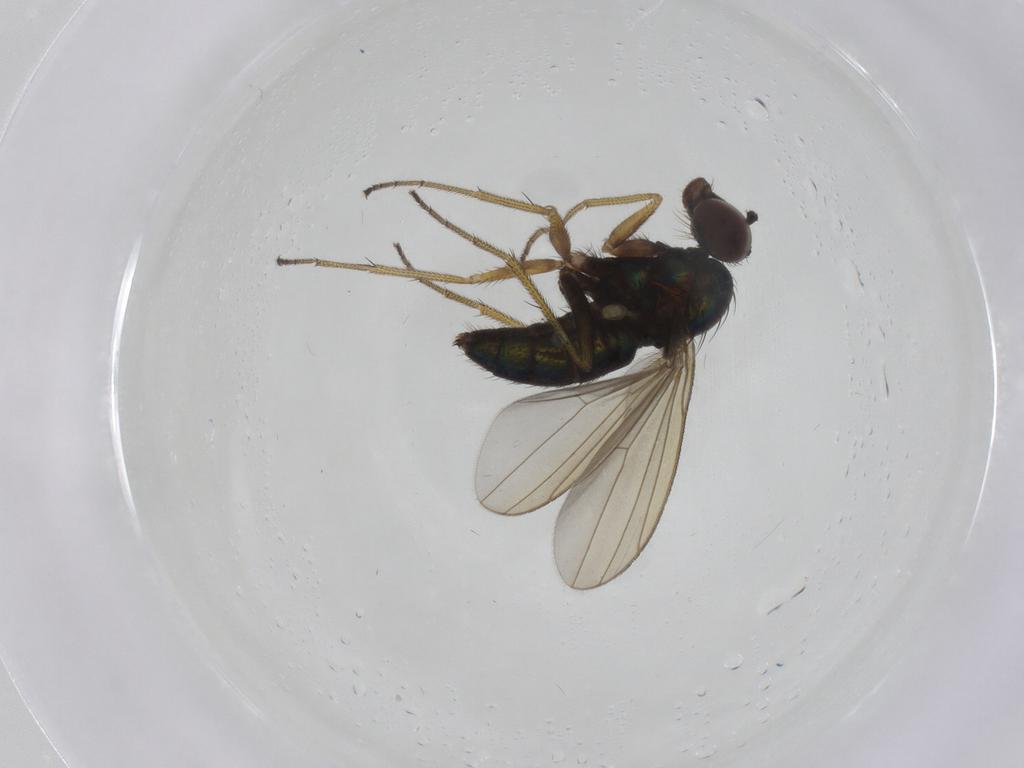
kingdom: Animalia
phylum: Arthropoda
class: Insecta
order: Diptera
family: Dolichopodidae
